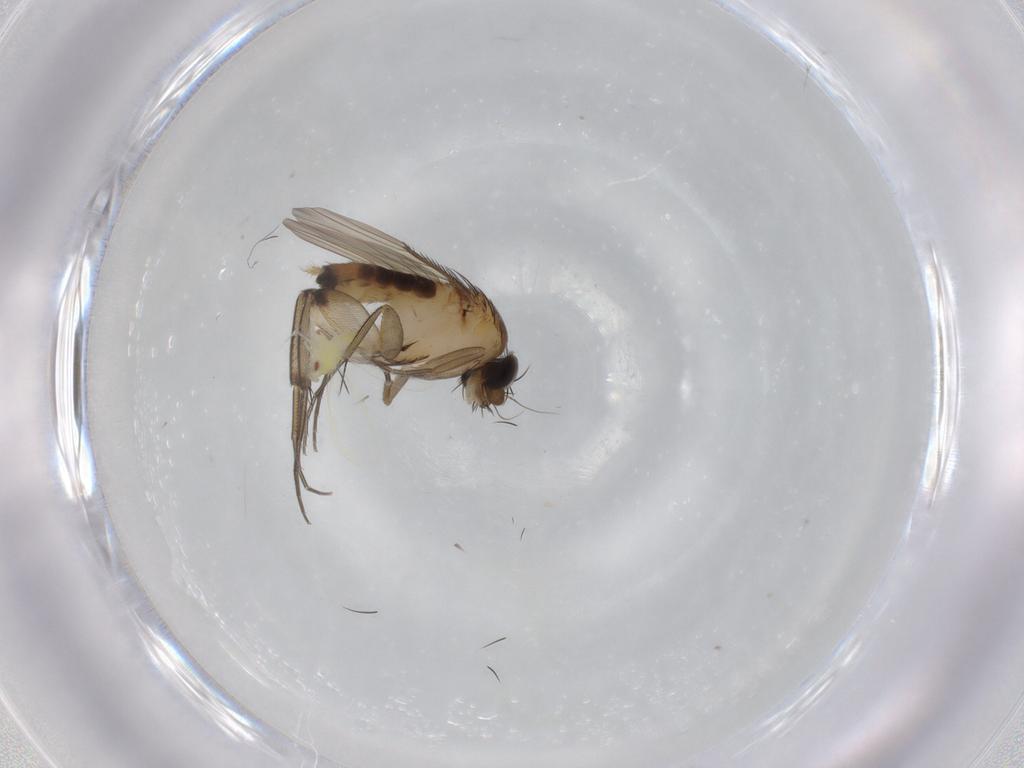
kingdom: Animalia
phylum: Arthropoda
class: Insecta
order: Diptera
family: Phoridae
